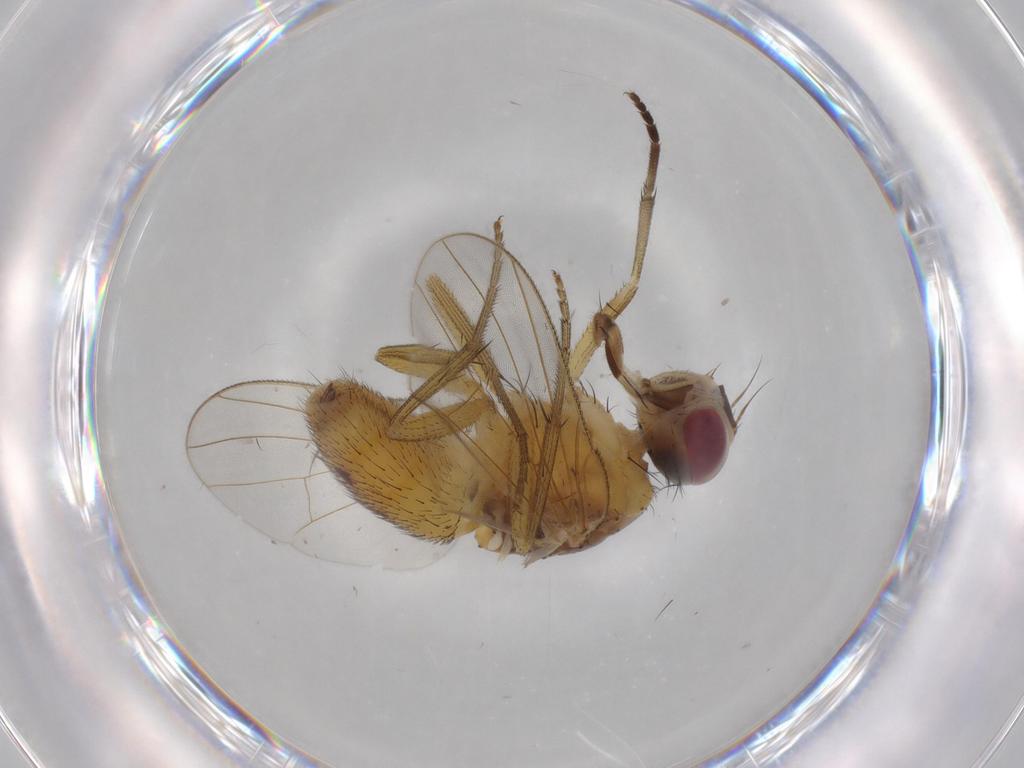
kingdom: Animalia
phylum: Arthropoda
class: Insecta
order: Diptera
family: Muscidae
